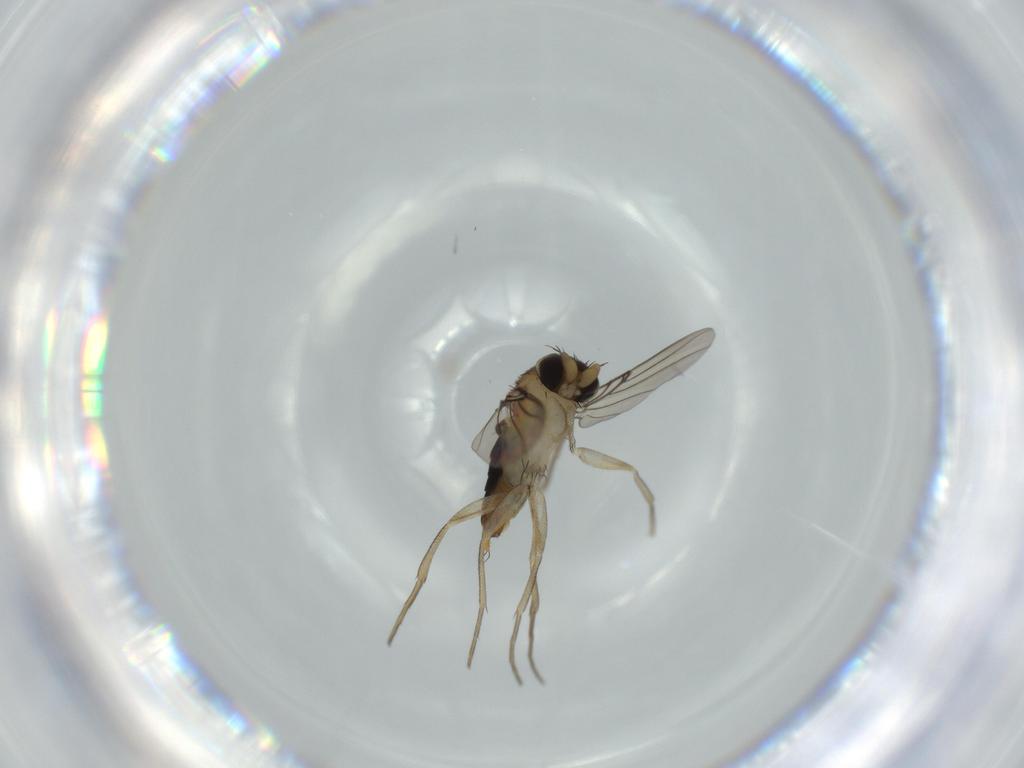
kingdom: Animalia
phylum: Arthropoda
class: Insecta
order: Diptera
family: Phoridae
